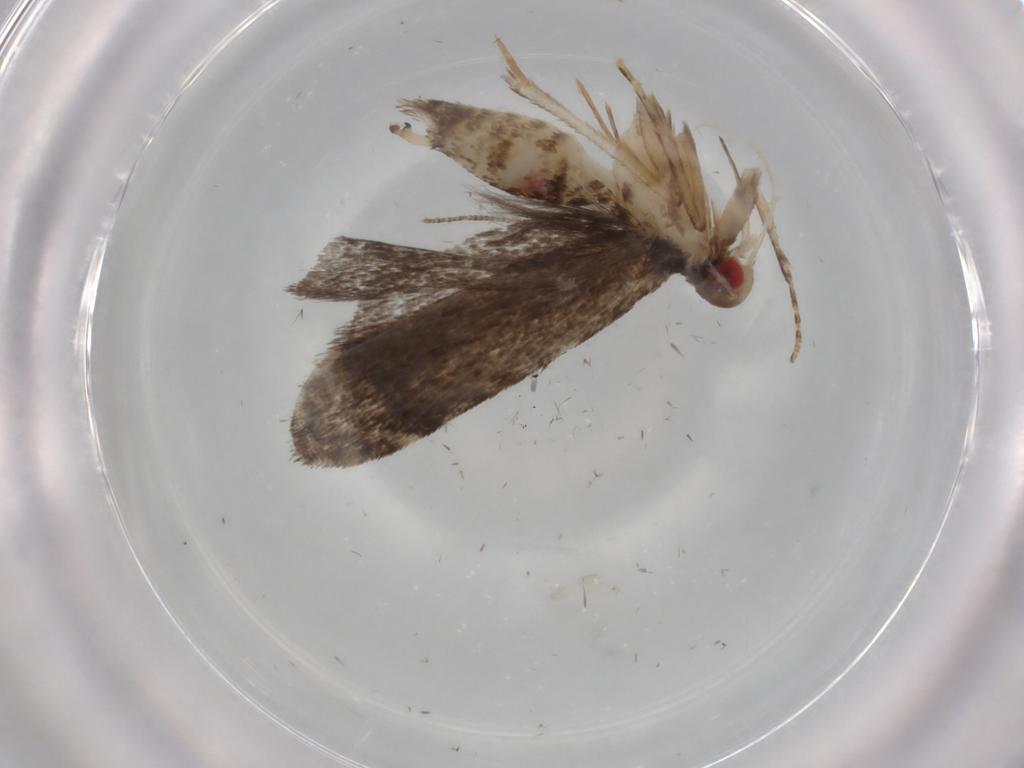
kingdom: Animalia
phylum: Arthropoda
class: Insecta
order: Lepidoptera
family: Gelechiidae
